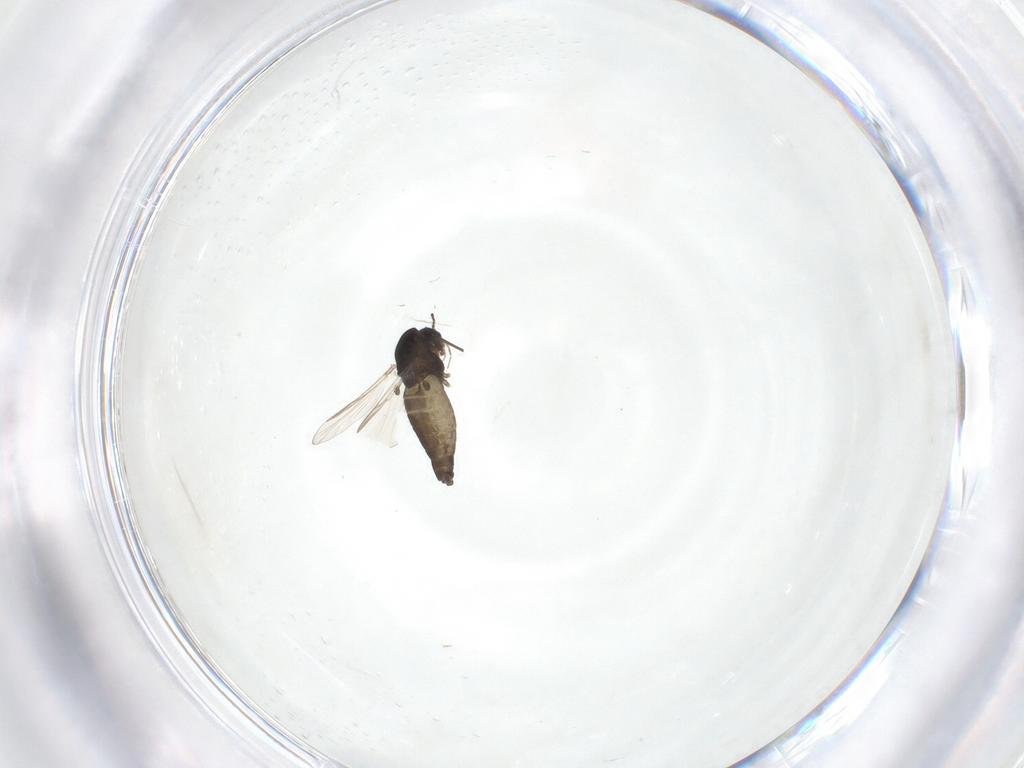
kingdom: Animalia
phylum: Arthropoda
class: Insecta
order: Diptera
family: Chironomidae
